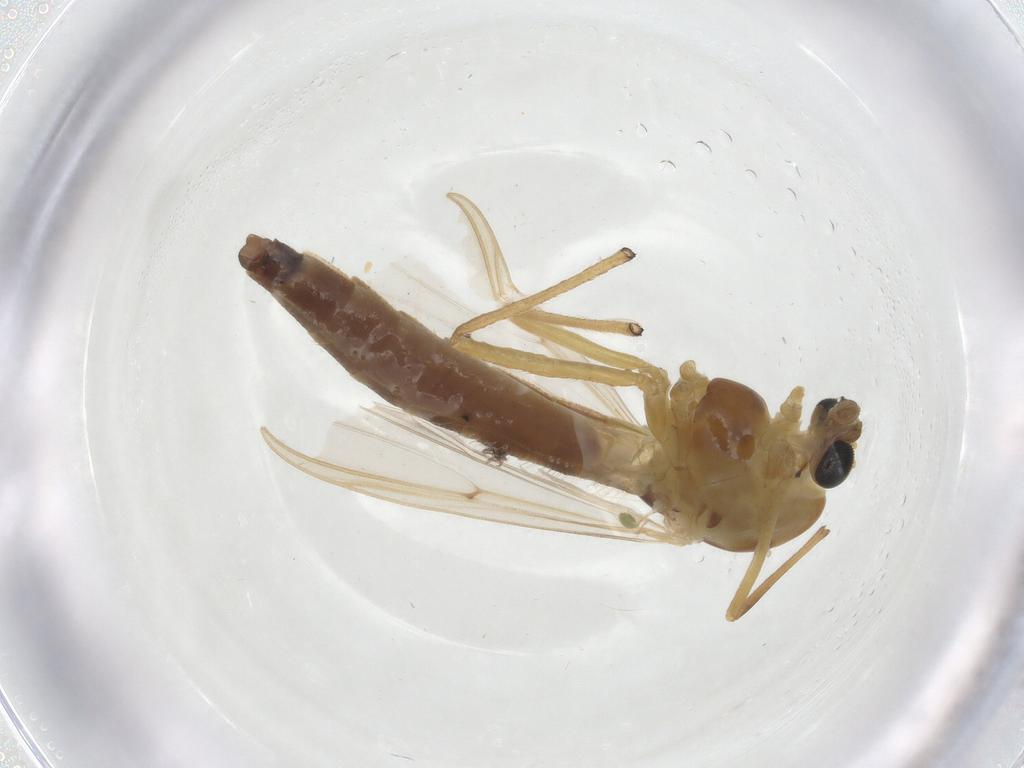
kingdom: Animalia
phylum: Arthropoda
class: Insecta
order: Diptera
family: Chironomidae
